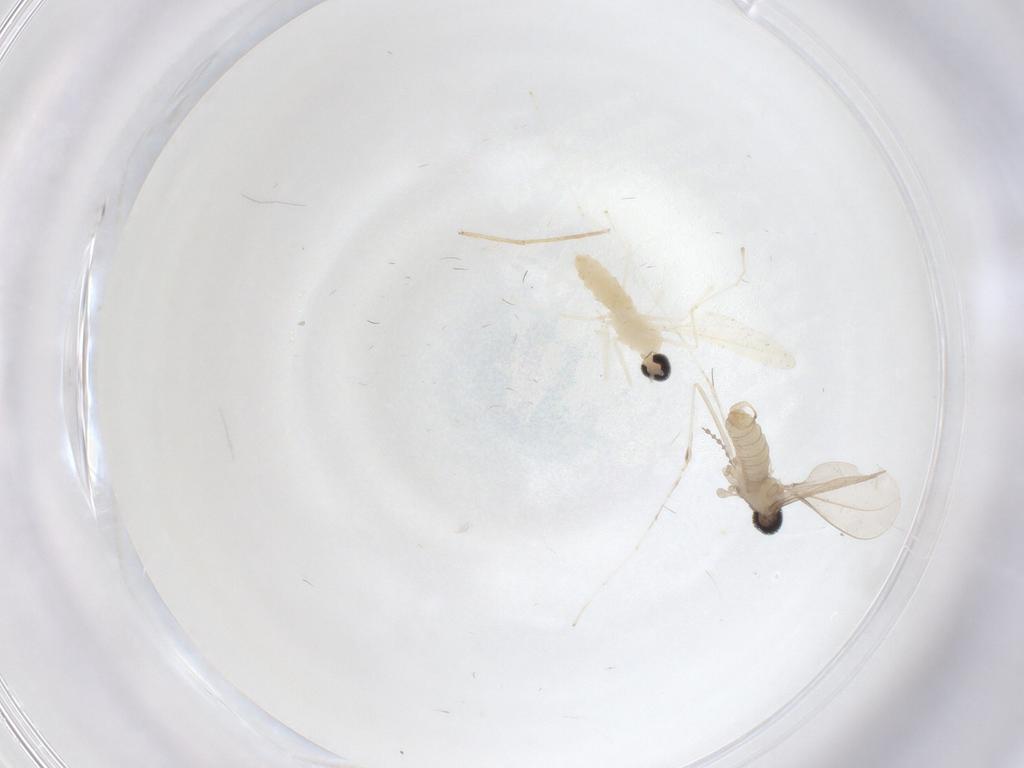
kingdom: Animalia
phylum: Arthropoda
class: Insecta
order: Diptera
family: Cecidomyiidae
